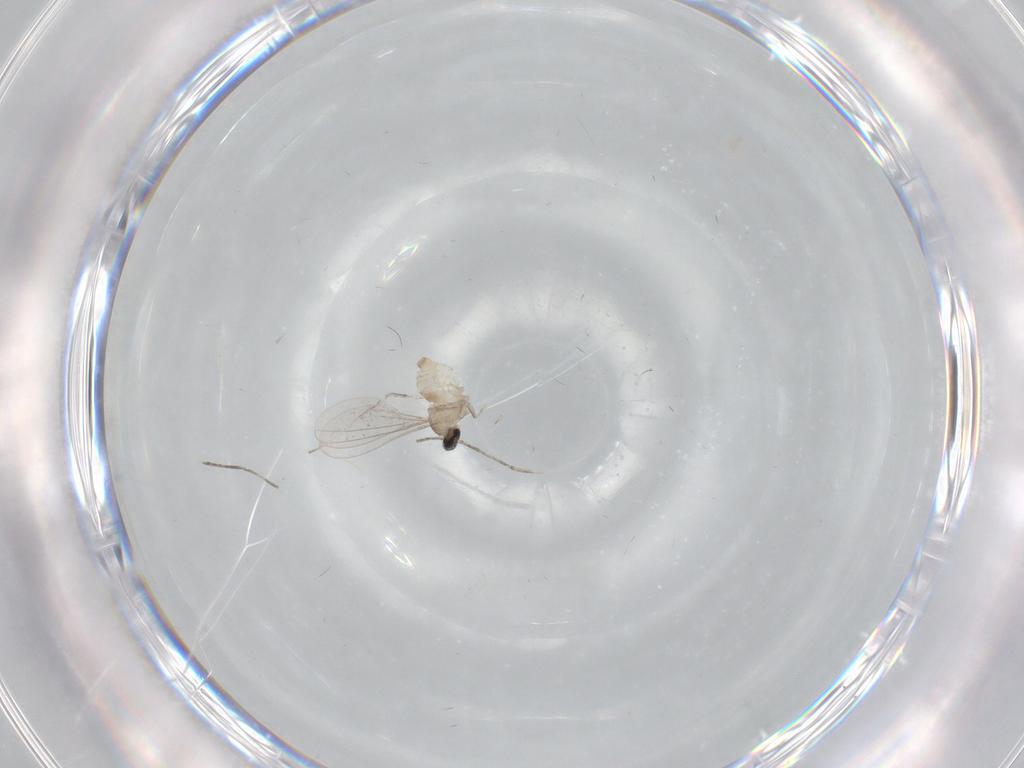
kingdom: Animalia
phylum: Arthropoda
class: Insecta
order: Diptera
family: Cecidomyiidae
